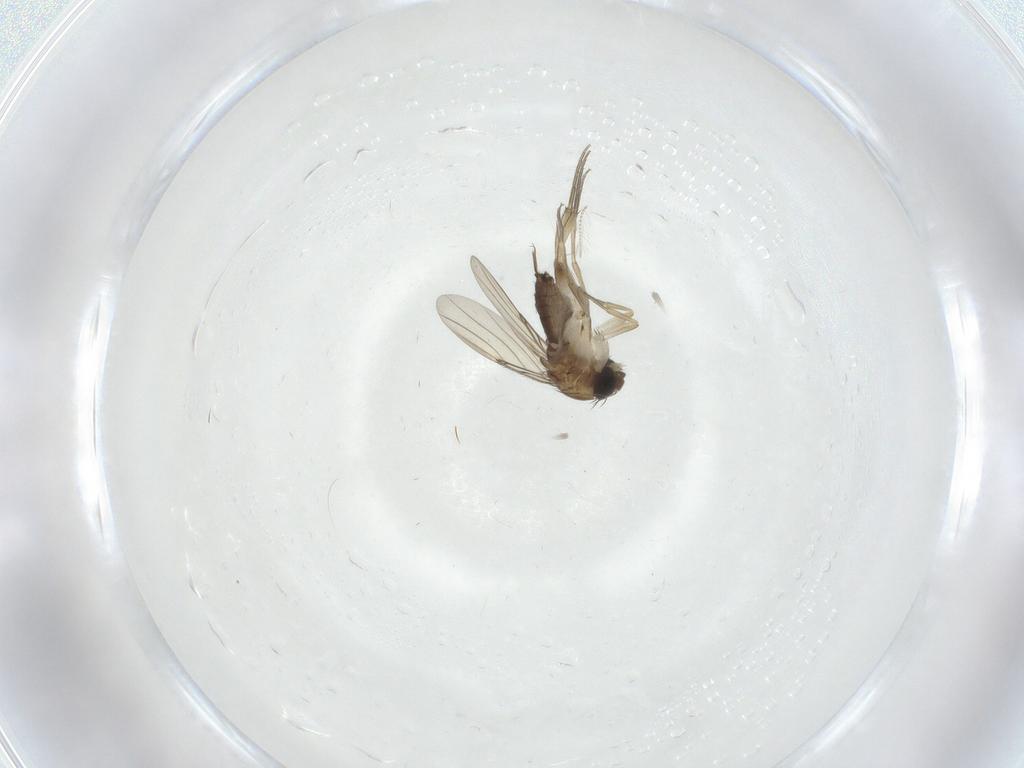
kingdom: Animalia
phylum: Arthropoda
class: Insecta
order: Diptera
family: Phoridae
